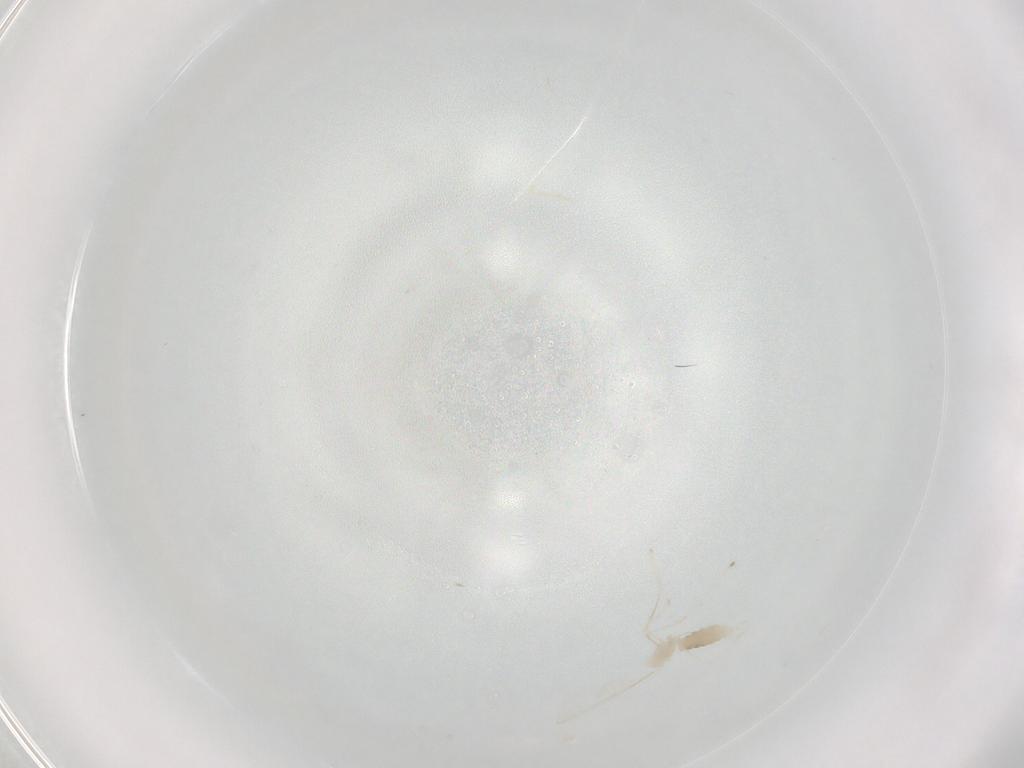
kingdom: Animalia
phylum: Arthropoda
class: Insecta
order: Diptera
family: Cecidomyiidae
